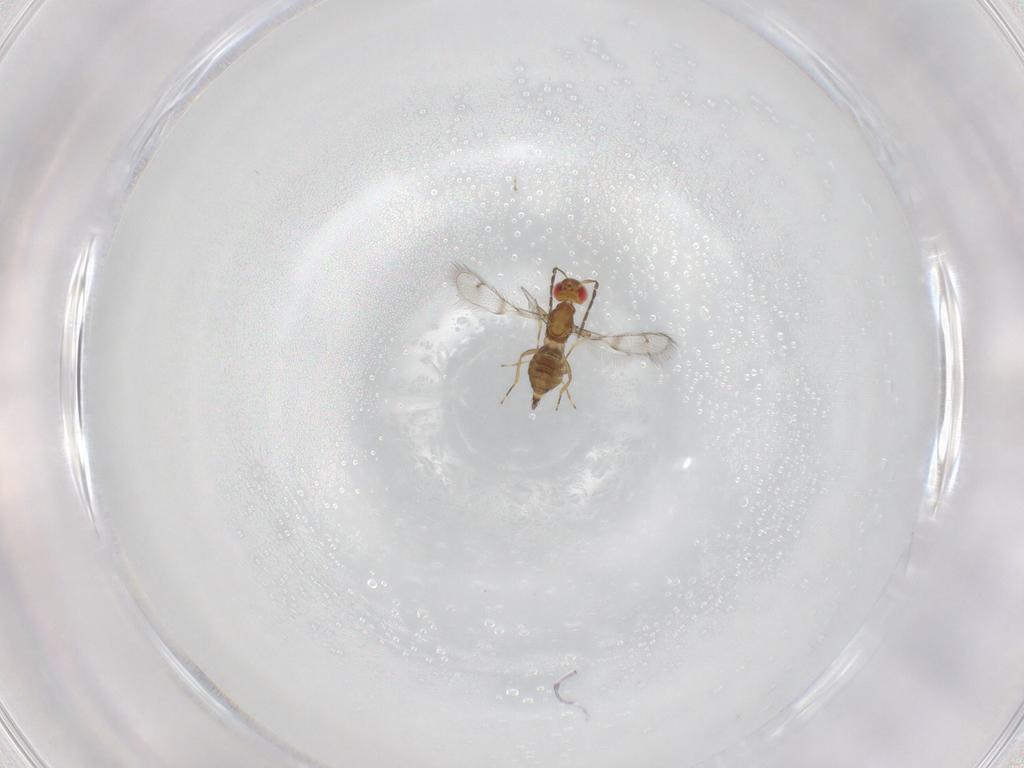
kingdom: Animalia
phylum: Arthropoda
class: Insecta
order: Hymenoptera
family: Eulophidae
